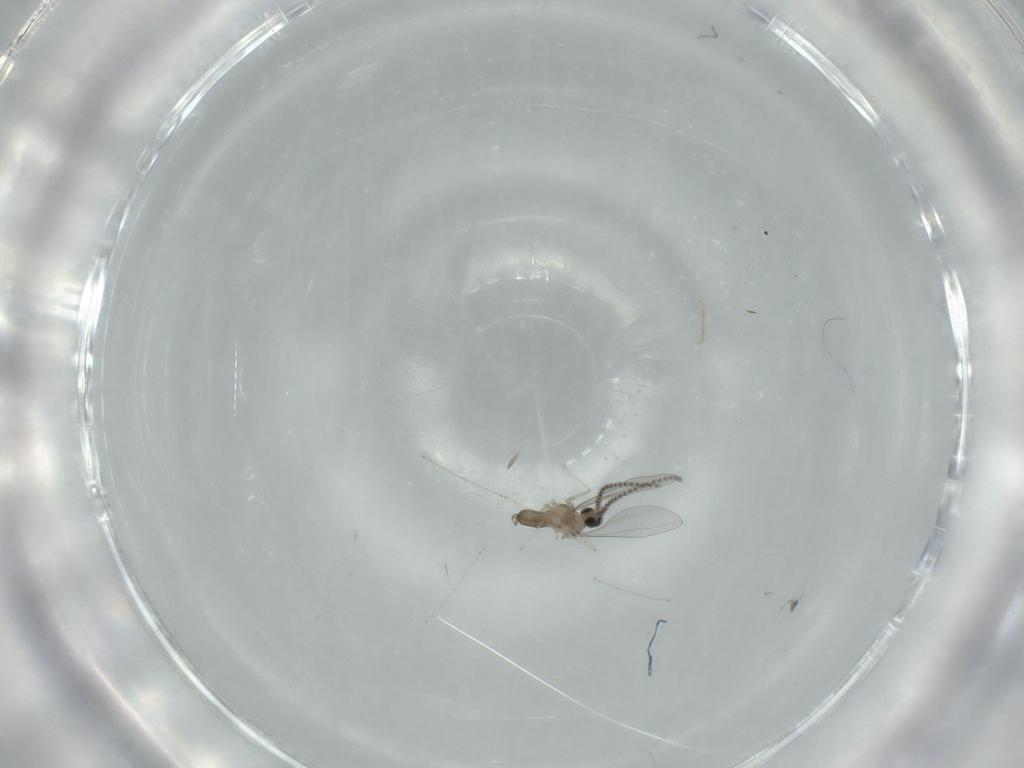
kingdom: Animalia
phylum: Arthropoda
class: Insecta
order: Diptera
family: Cecidomyiidae
